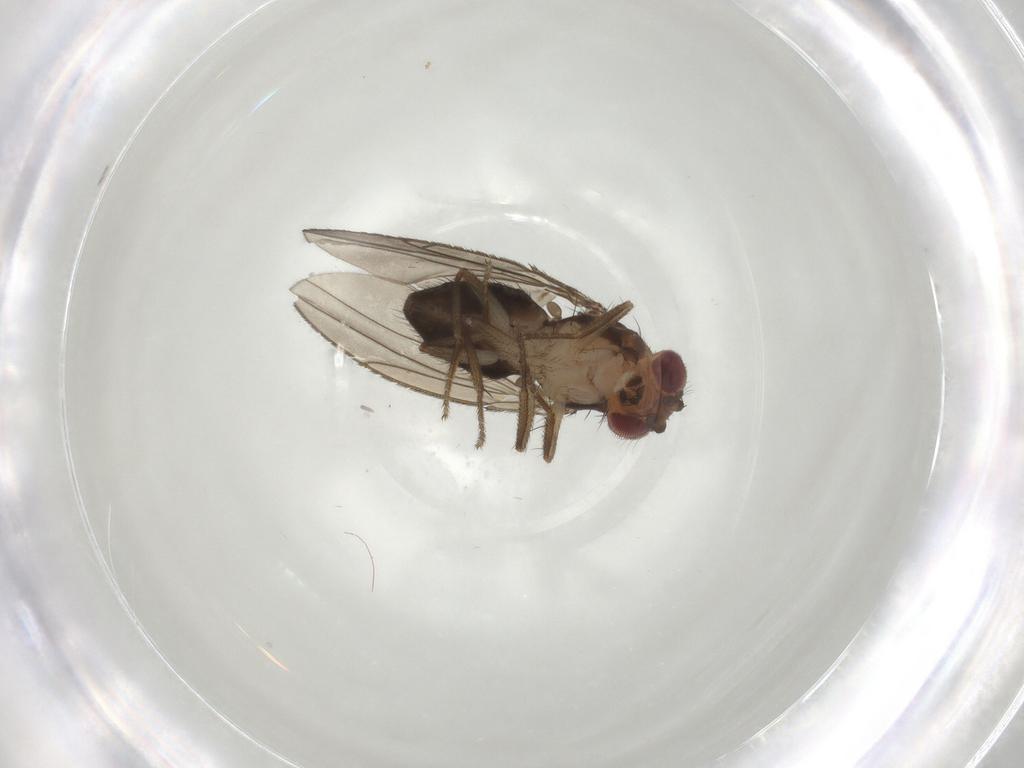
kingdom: Animalia
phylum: Arthropoda
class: Insecta
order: Diptera
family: Drosophilidae
